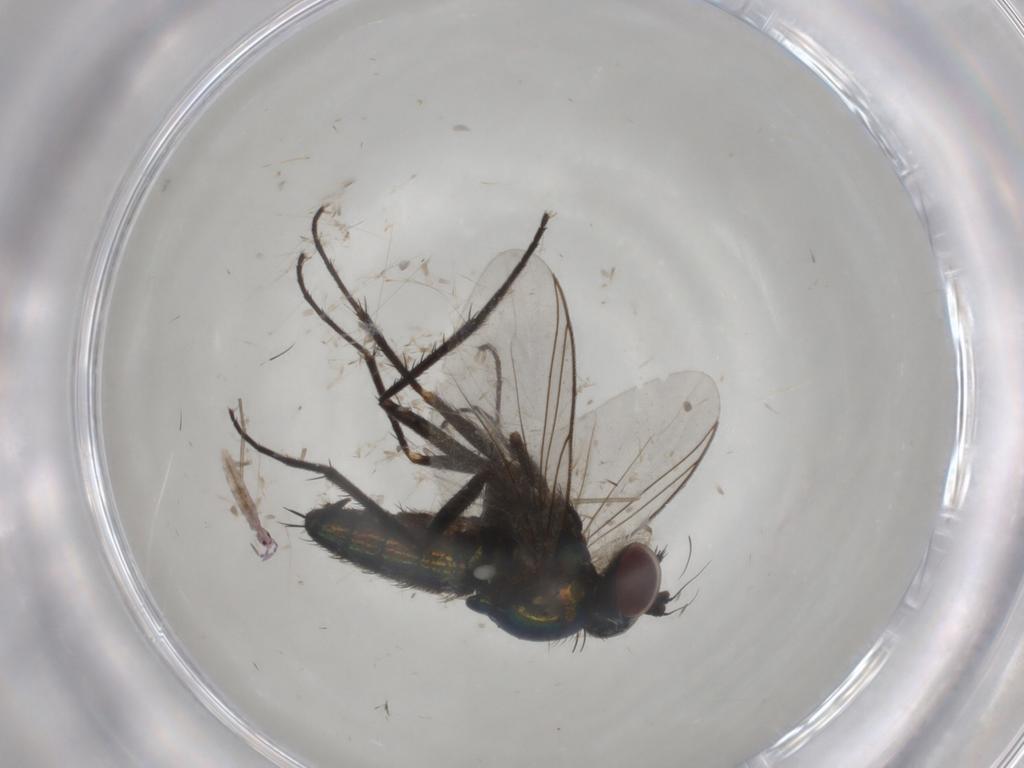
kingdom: Animalia
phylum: Arthropoda
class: Insecta
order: Diptera
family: Dolichopodidae
